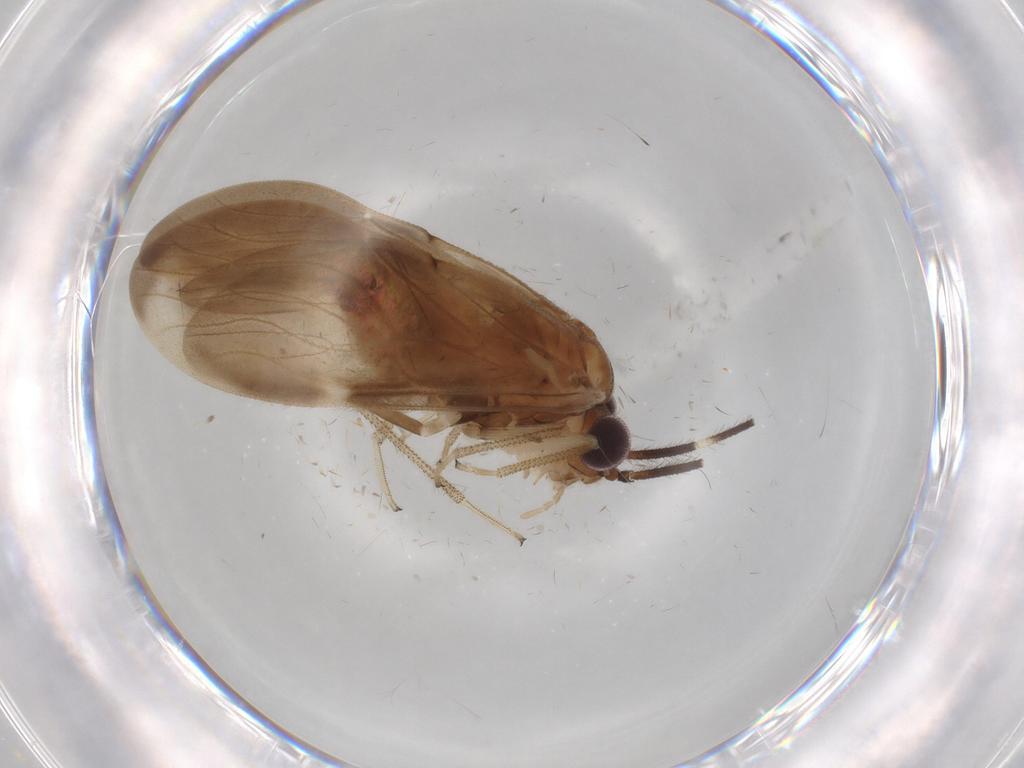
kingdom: Animalia
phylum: Arthropoda
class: Insecta
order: Psocodea
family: Amphipsocidae
